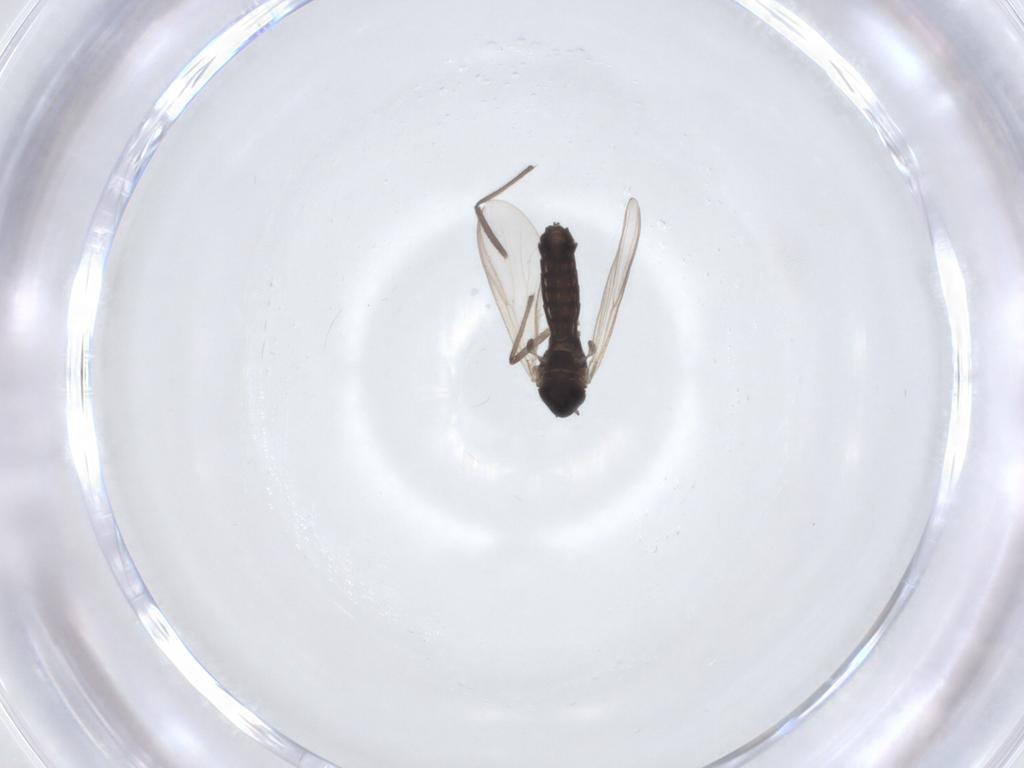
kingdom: Animalia
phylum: Arthropoda
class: Insecta
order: Diptera
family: Chironomidae
